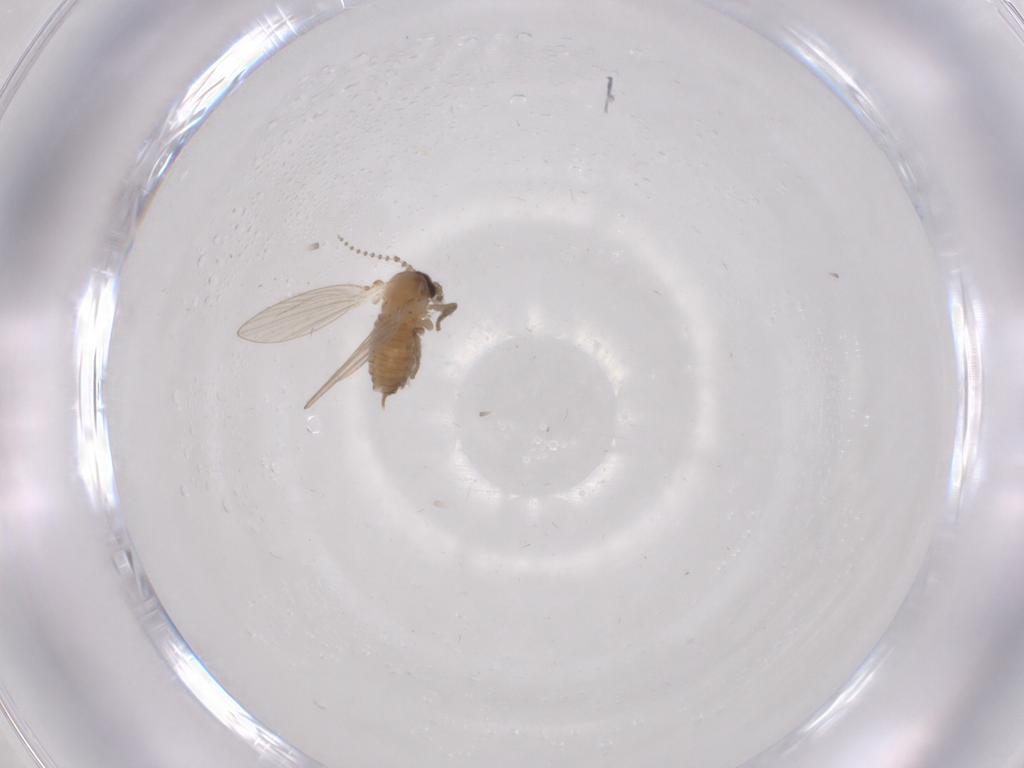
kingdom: Animalia
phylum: Arthropoda
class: Insecta
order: Diptera
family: Psychodidae
